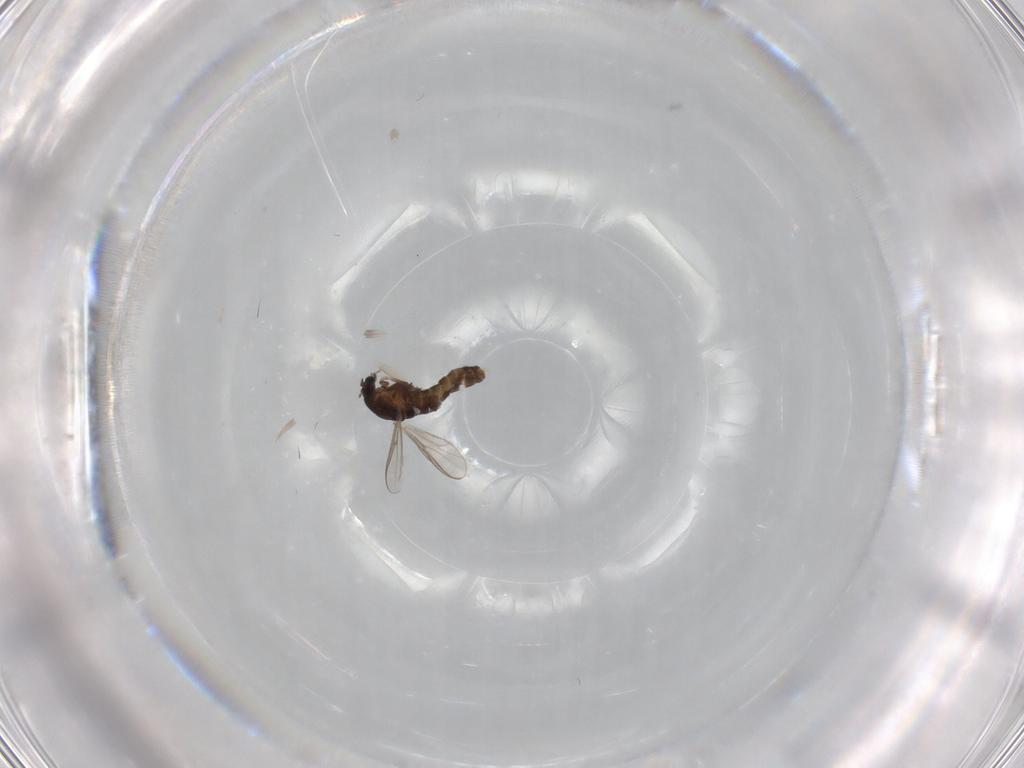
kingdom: Animalia
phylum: Arthropoda
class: Insecta
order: Diptera
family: Chironomidae
